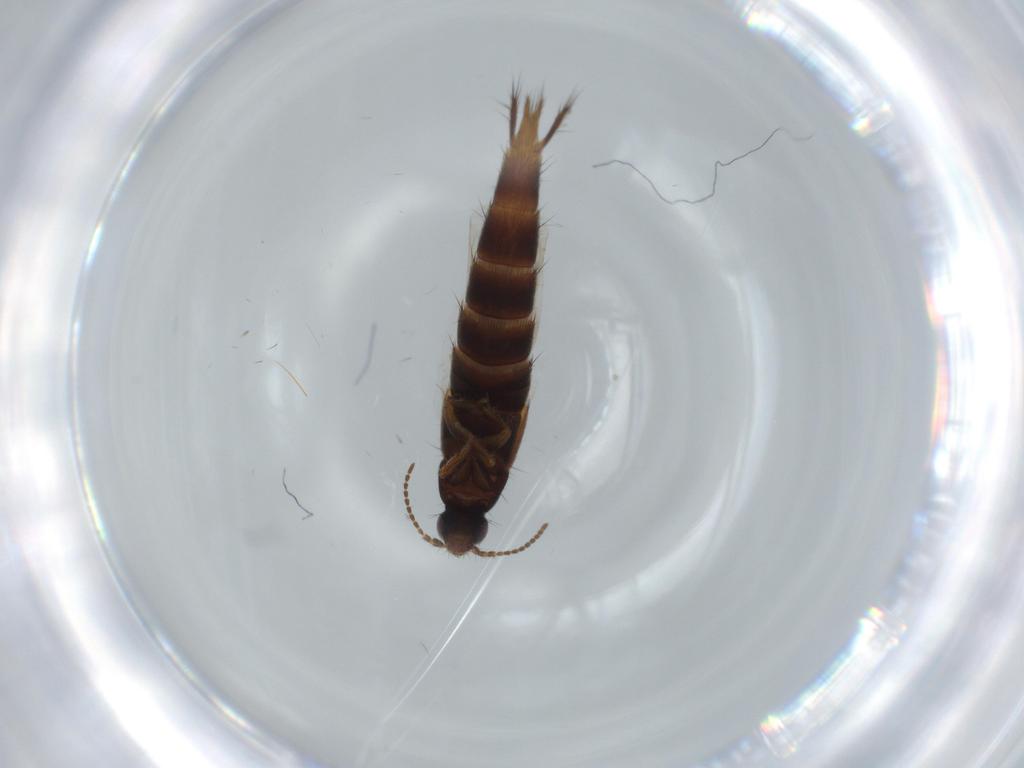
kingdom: Animalia
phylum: Arthropoda
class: Insecta
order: Coleoptera
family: Staphylinidae
